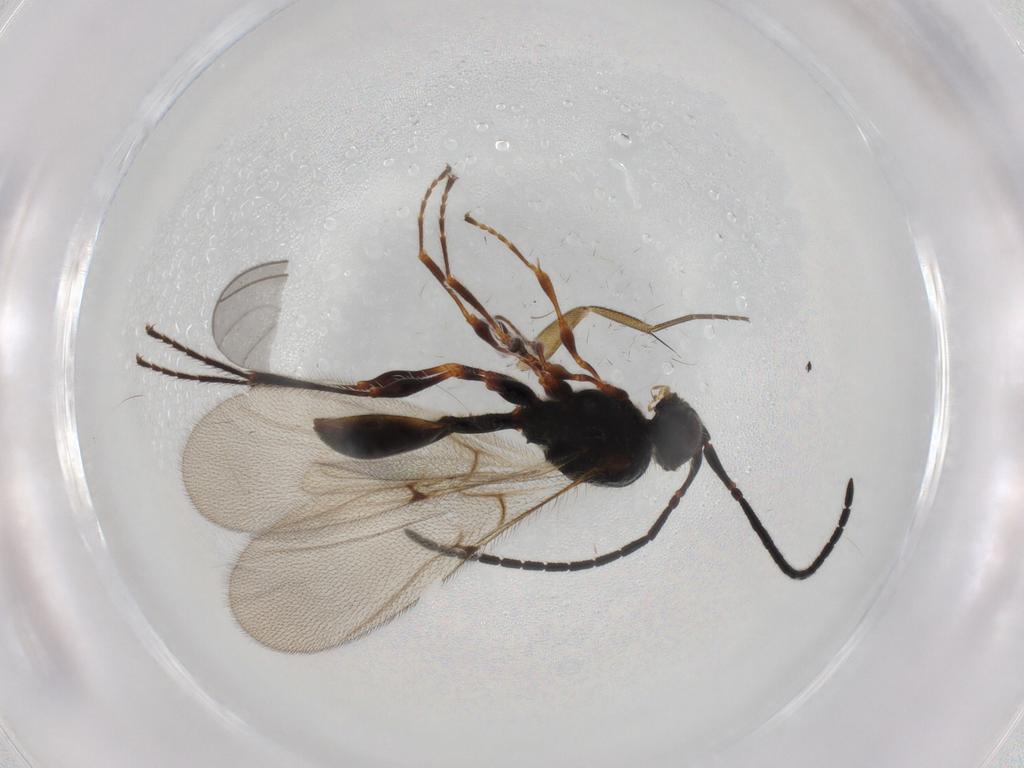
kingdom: Animalia
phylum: Arthropoda
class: Insecta
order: Hymenoptera
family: Diapriidae
